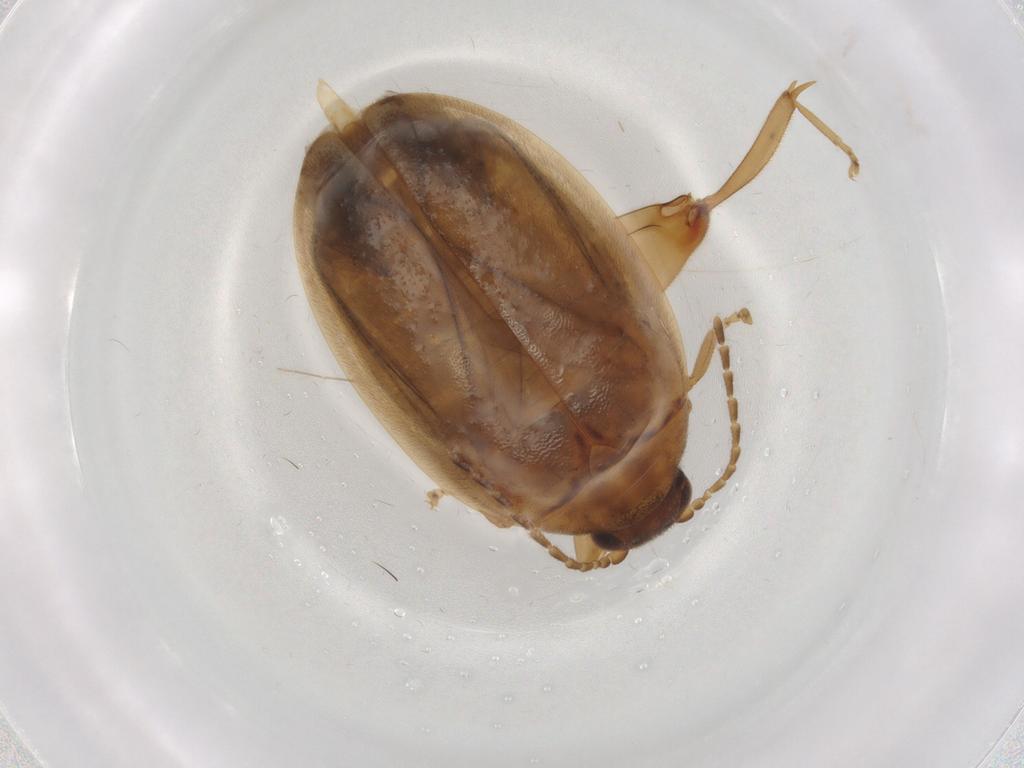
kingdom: Animalia
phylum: Arthropoda
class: Insecta
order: Coleoptera
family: Scirtidae
